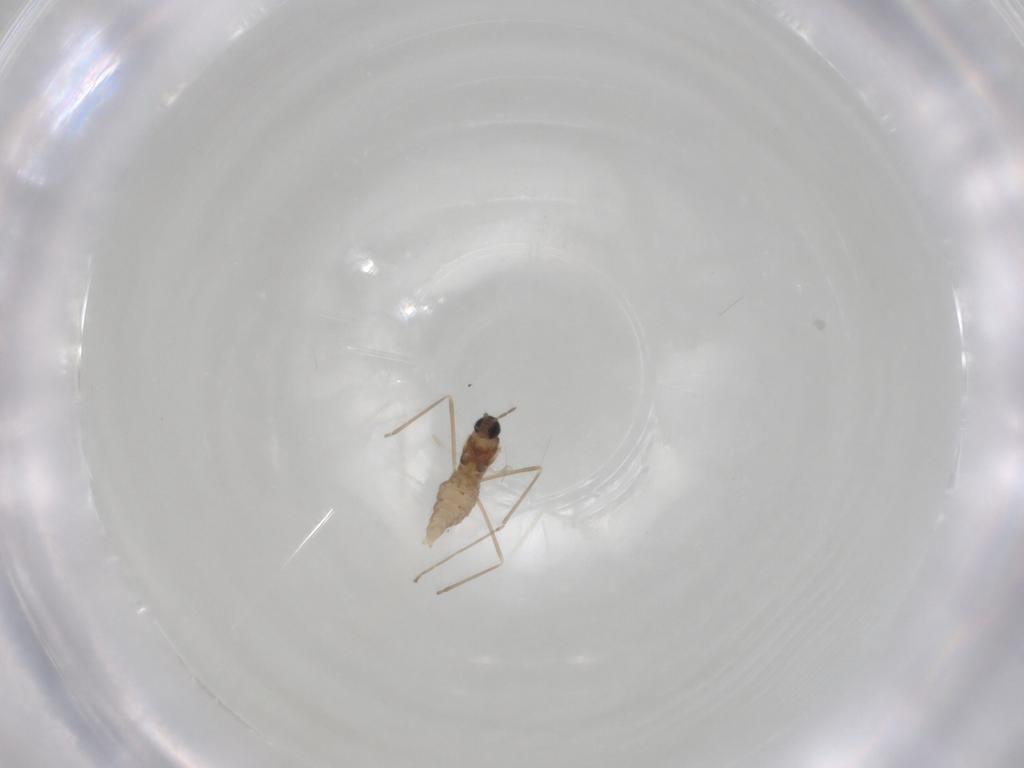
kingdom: Animalia
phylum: Arthropoda
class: Insecta
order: Diptera
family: Cecidomyiidae
